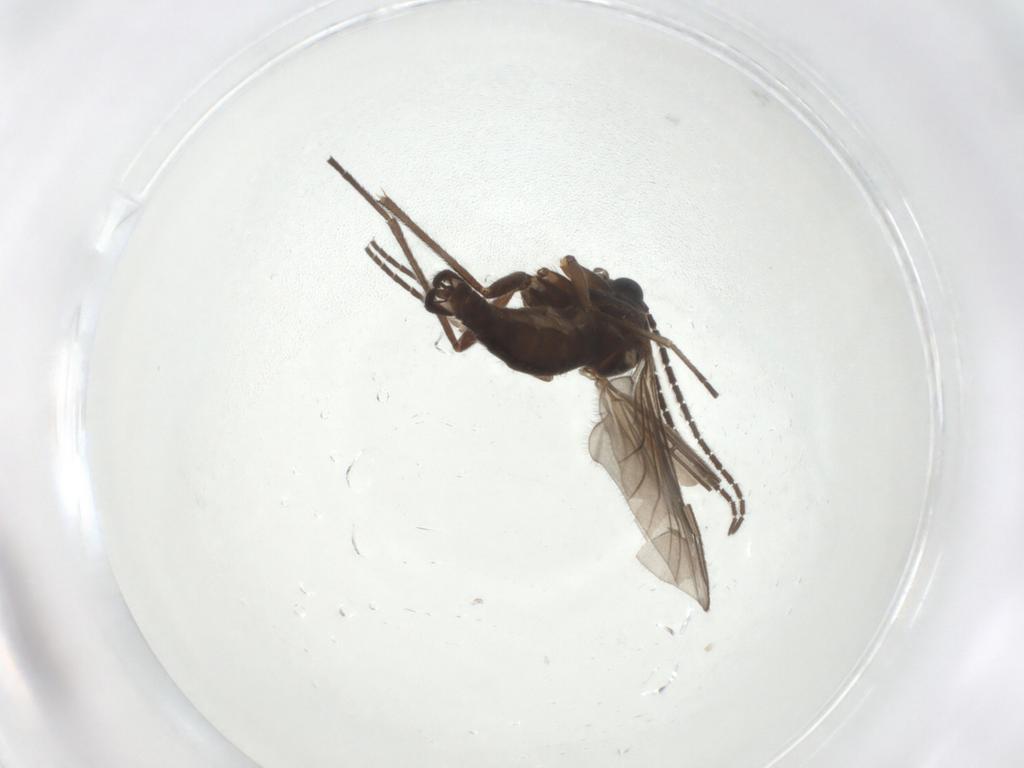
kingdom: Animalia
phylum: Arthropoda
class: Insecta
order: Diptera
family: Sciaridae
